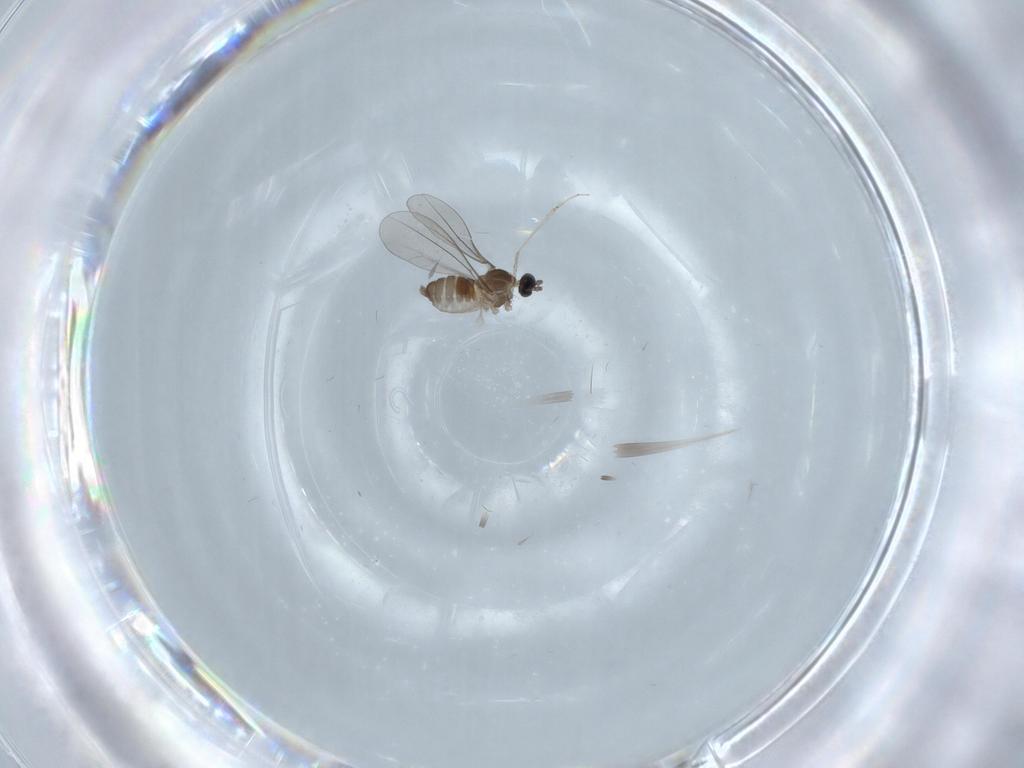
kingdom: Animalia
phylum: Arthropoda
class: Insecta
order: Diptera
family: Cecidomyiidae
